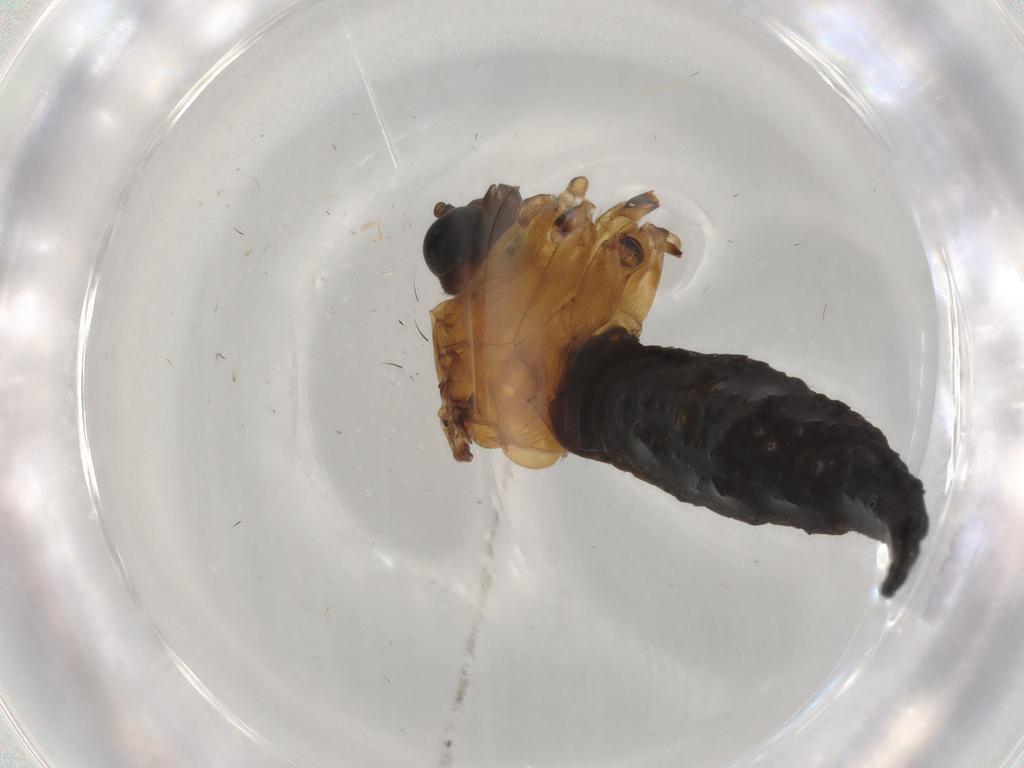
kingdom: Animalia
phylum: Arthropoda
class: Insecta
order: Diptera
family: Sciaridae
